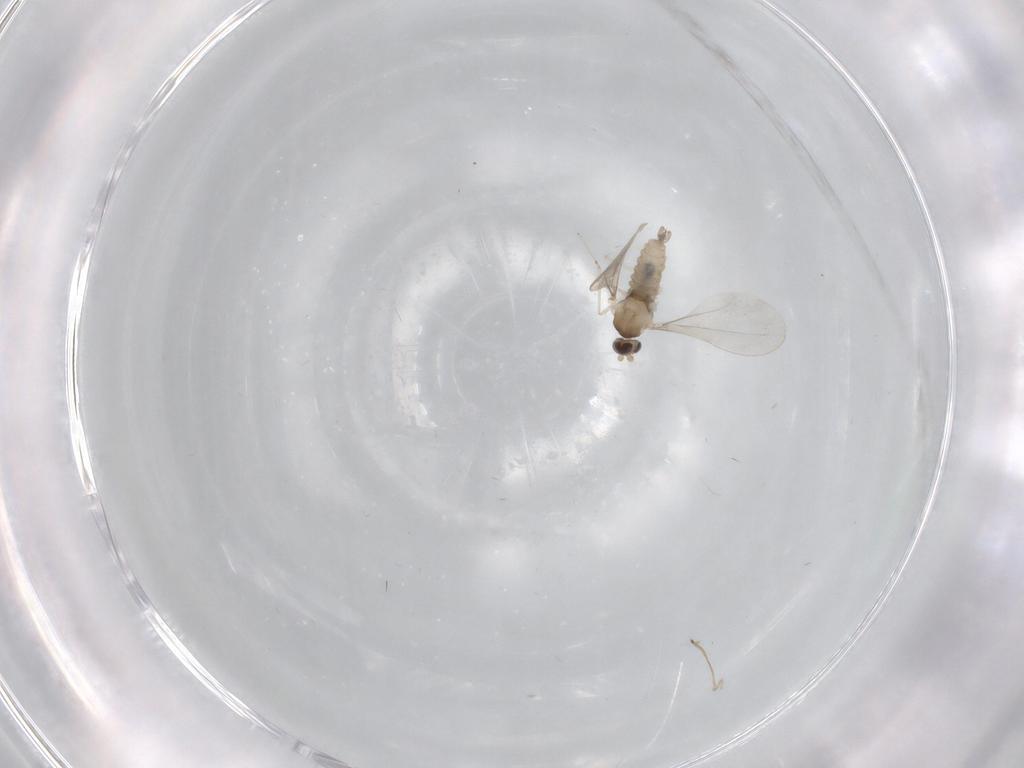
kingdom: Animalia
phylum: Arthropoda
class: Insecta
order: Diptera
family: Cecidomyiidae
